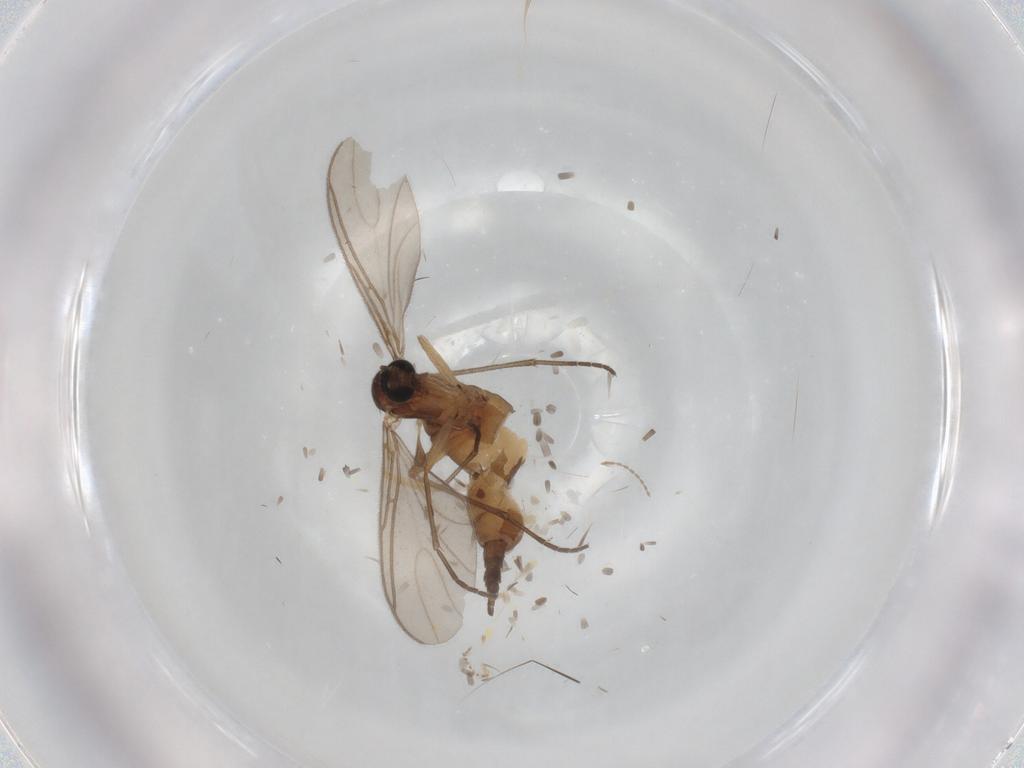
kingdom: Animalia
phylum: Arthropoda
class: Insecta
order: Diptera
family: Sciaridae
